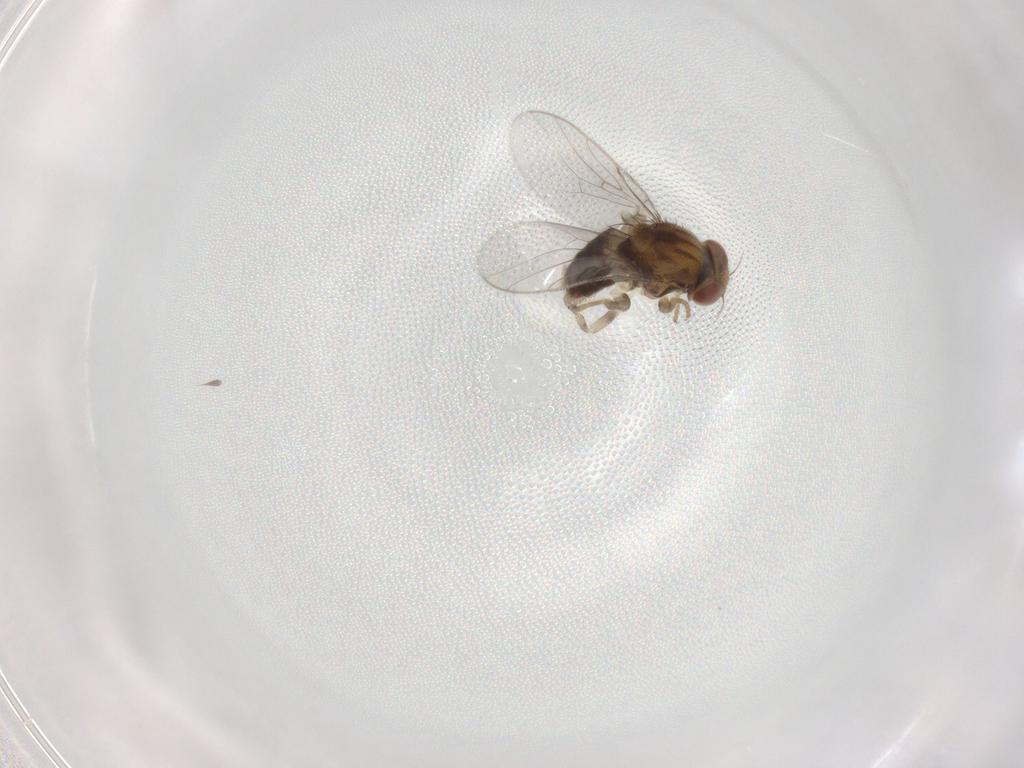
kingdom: Animalia
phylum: Arthropoda
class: Insecta
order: Diptera
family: Chloropidae
